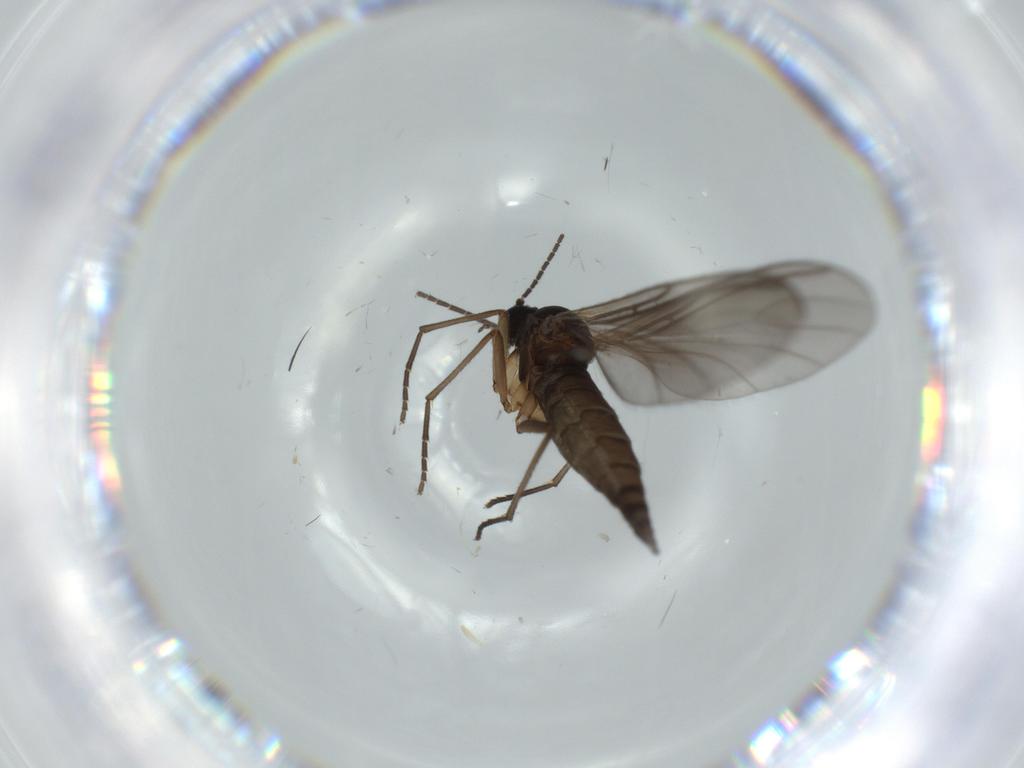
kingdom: Animalia
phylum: Arthropoda
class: Insecta
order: Diptera
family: Sciaridae
